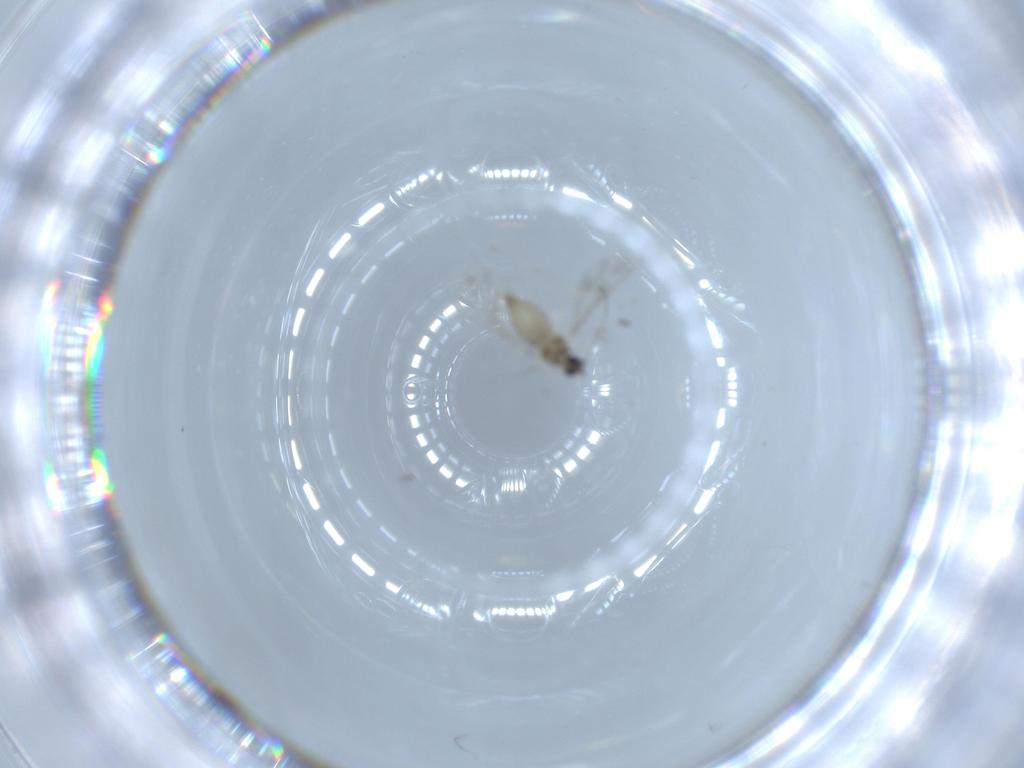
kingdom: Animalia
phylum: Arthropoda
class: Insecta
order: Diptera
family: Cecidomyiidae
